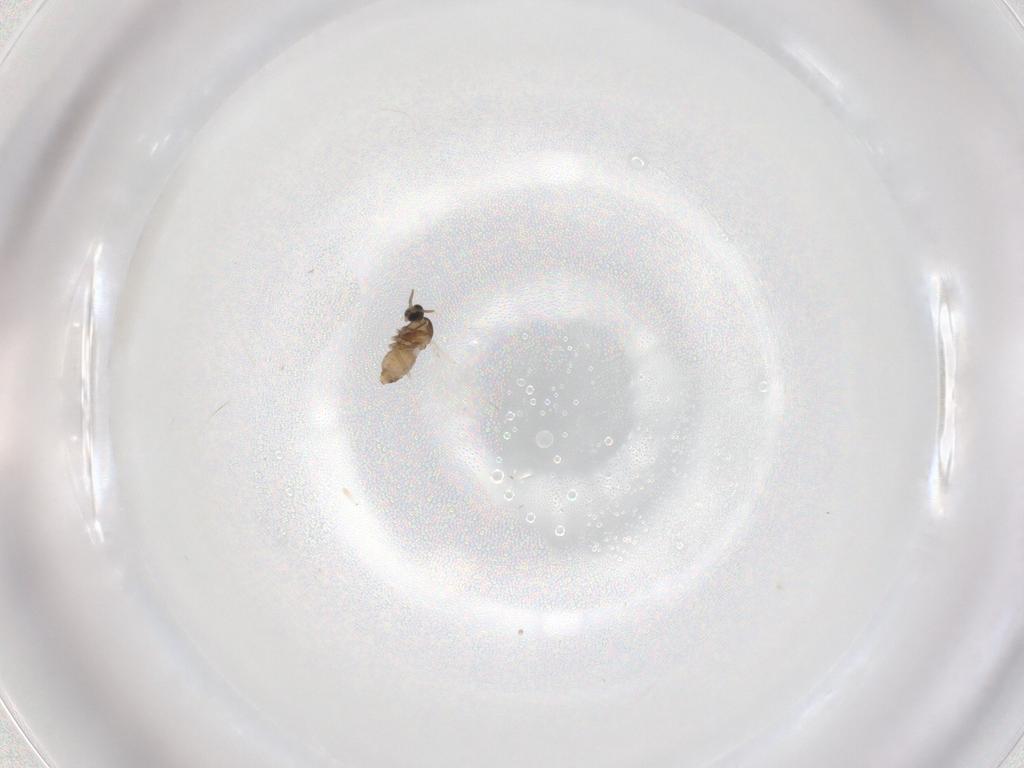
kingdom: Animalia
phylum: Arthropoda
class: Insecta
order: Diptera
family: Cecidomyiidae
